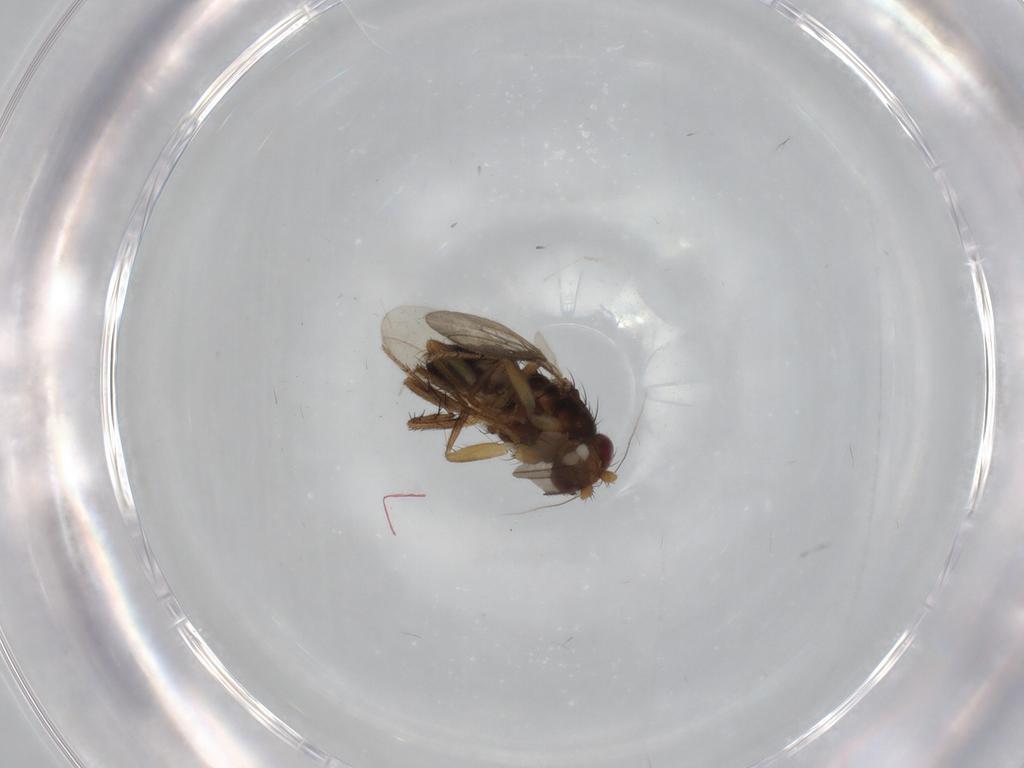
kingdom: Animalia
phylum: Arthropoda
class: Insecta
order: Diptera
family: Sphaeroceridae
